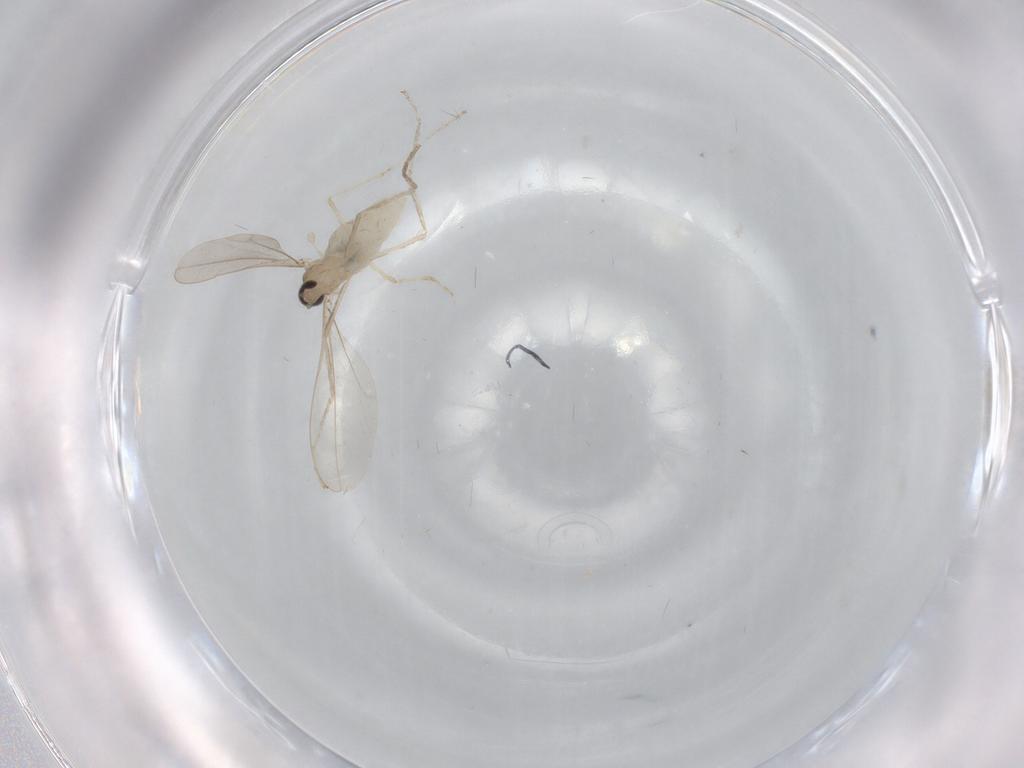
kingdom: Animalia
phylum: Arthropoda
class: Insecta
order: Diptera
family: Cecidomyiidae
